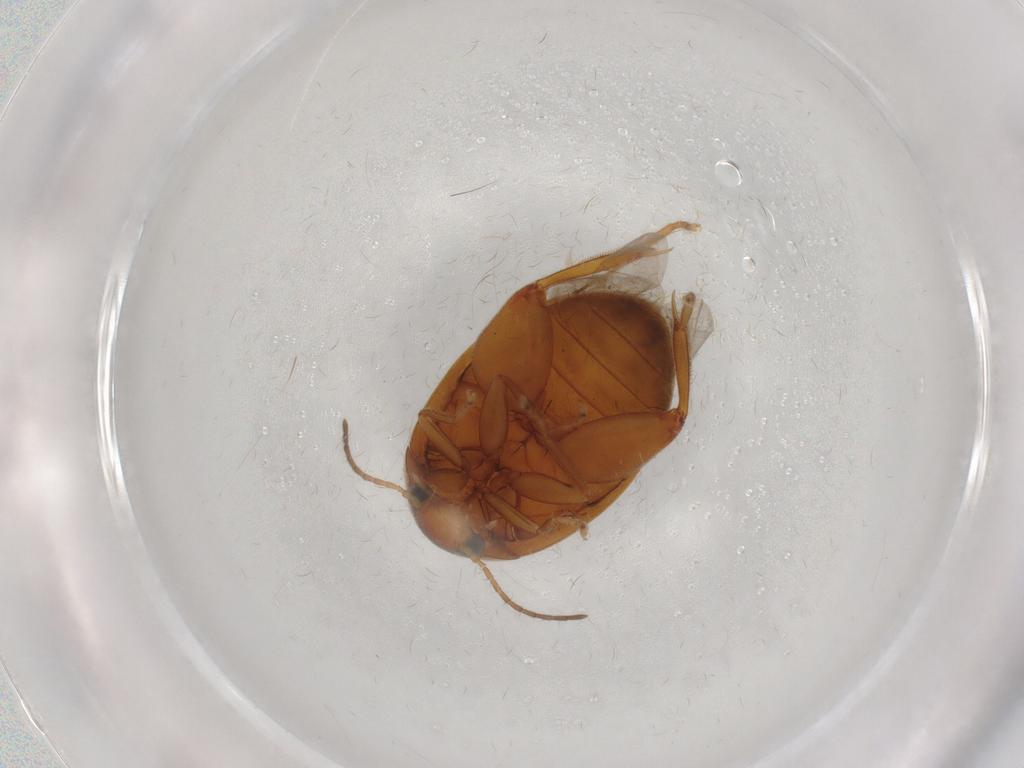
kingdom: Animalia
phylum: Arthropoda
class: Insecta
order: Coleoptera
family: Scirtidae
